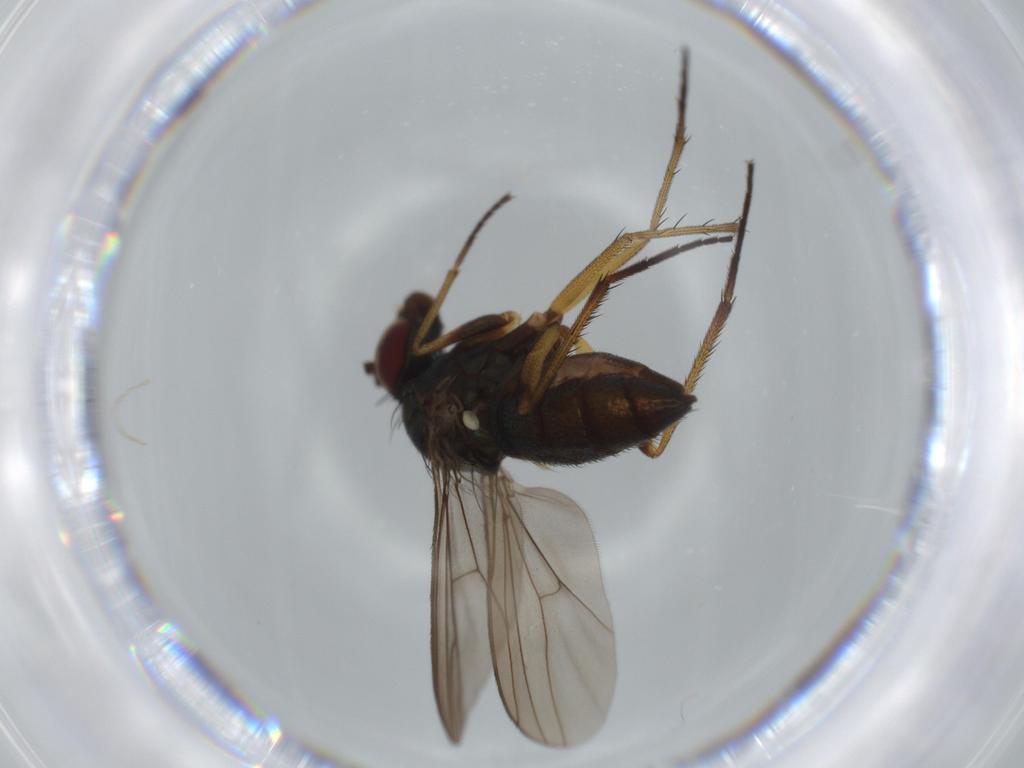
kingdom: Animalia
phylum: Arthropoda
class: Insecta
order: Diptera
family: Dolichopodidae
